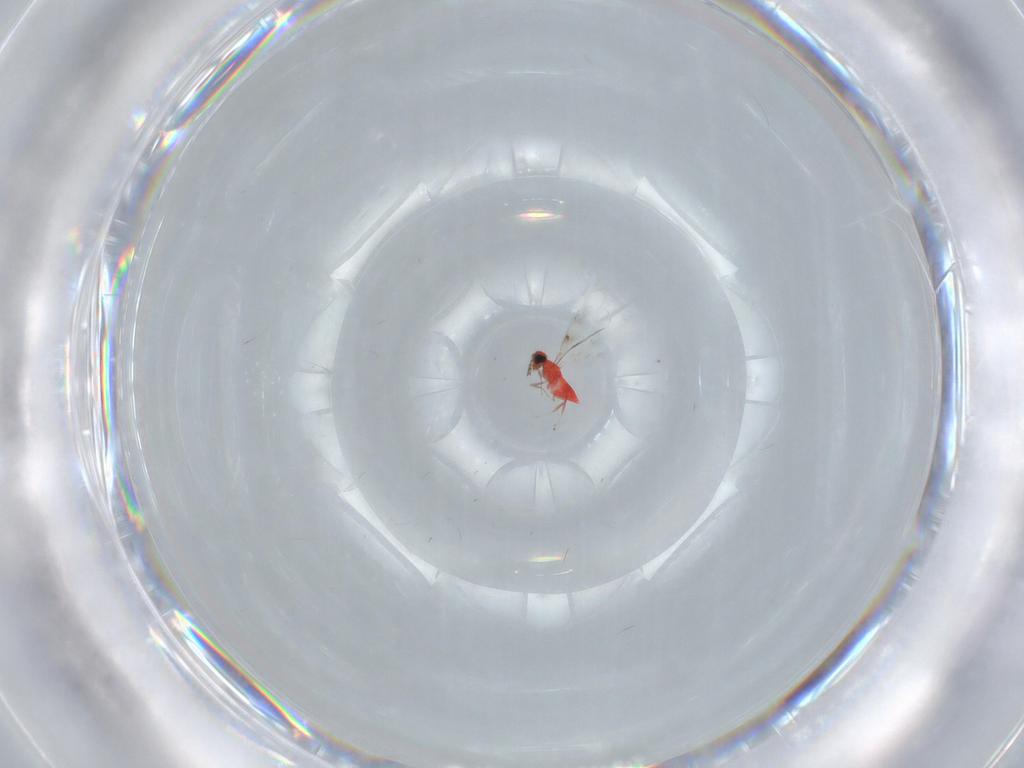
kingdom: Animalia
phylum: Arthropoda
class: Insecta
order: Hymenoptera
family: Trichogrammatidae
